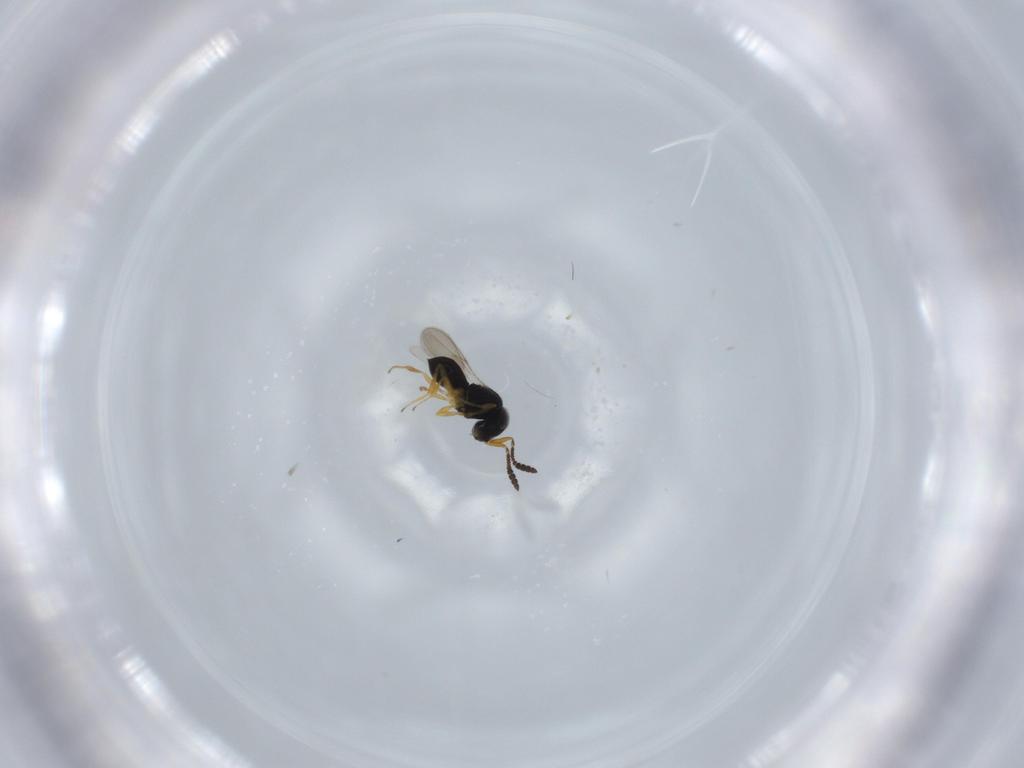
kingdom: Animalia
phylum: Arthropoda
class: Insecta
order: Hymenoptera
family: Scelionidae
